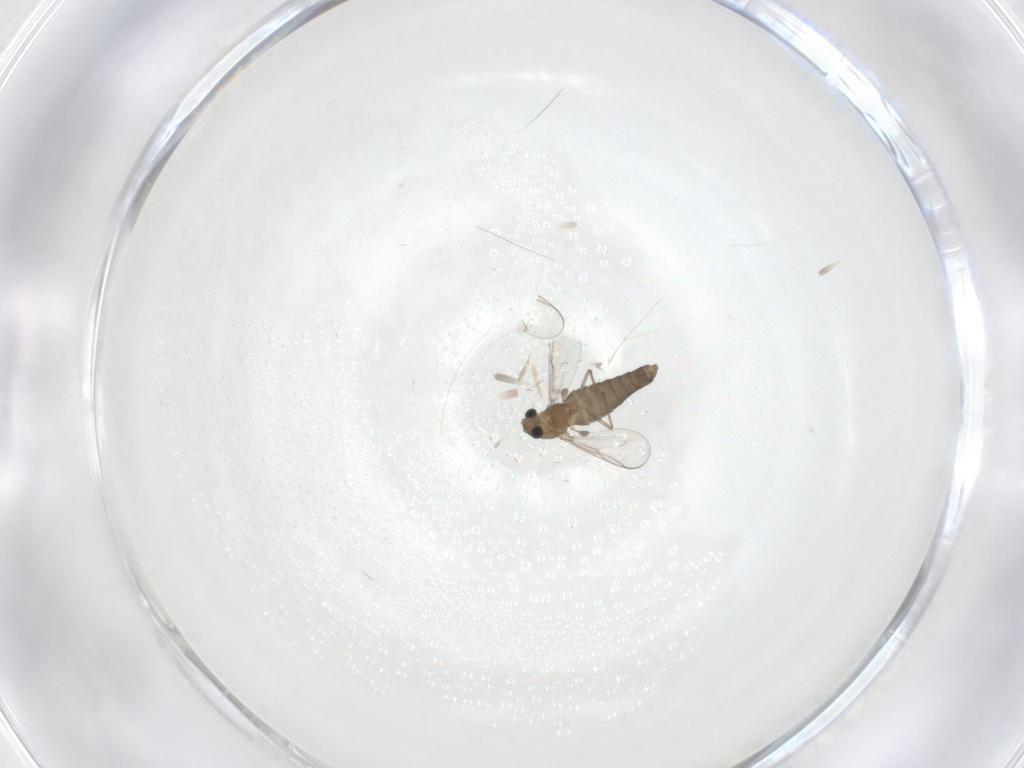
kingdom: Animalia
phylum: Arthropoda
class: Insecta
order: Diptera
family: Chironomidae
